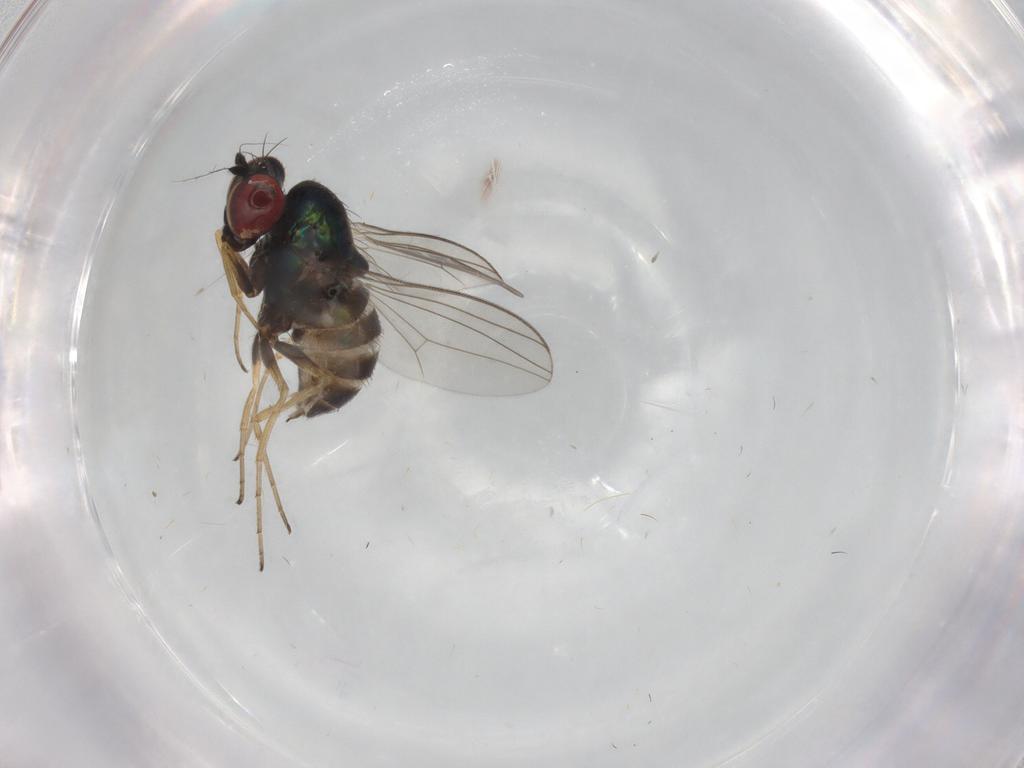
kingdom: Animalia
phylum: Arthropoda
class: Insecta
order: Diptera
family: Dolichopodidae
